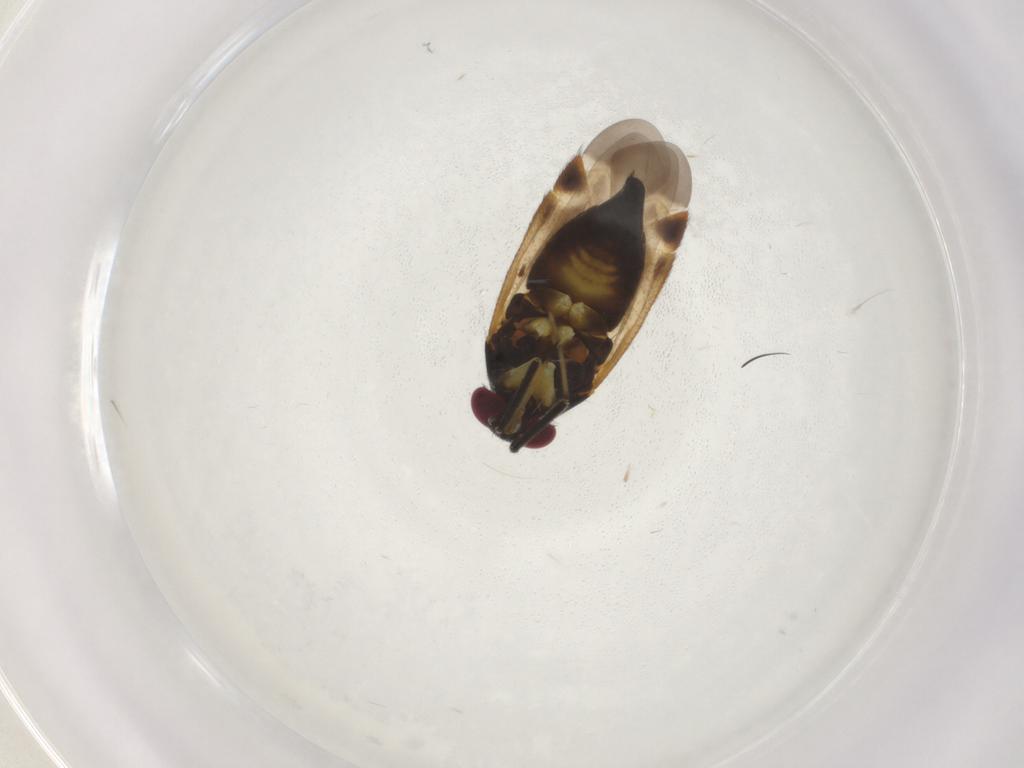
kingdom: Animalia
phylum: Arthropoda
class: Insecta
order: Hemiptera
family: Miridae
